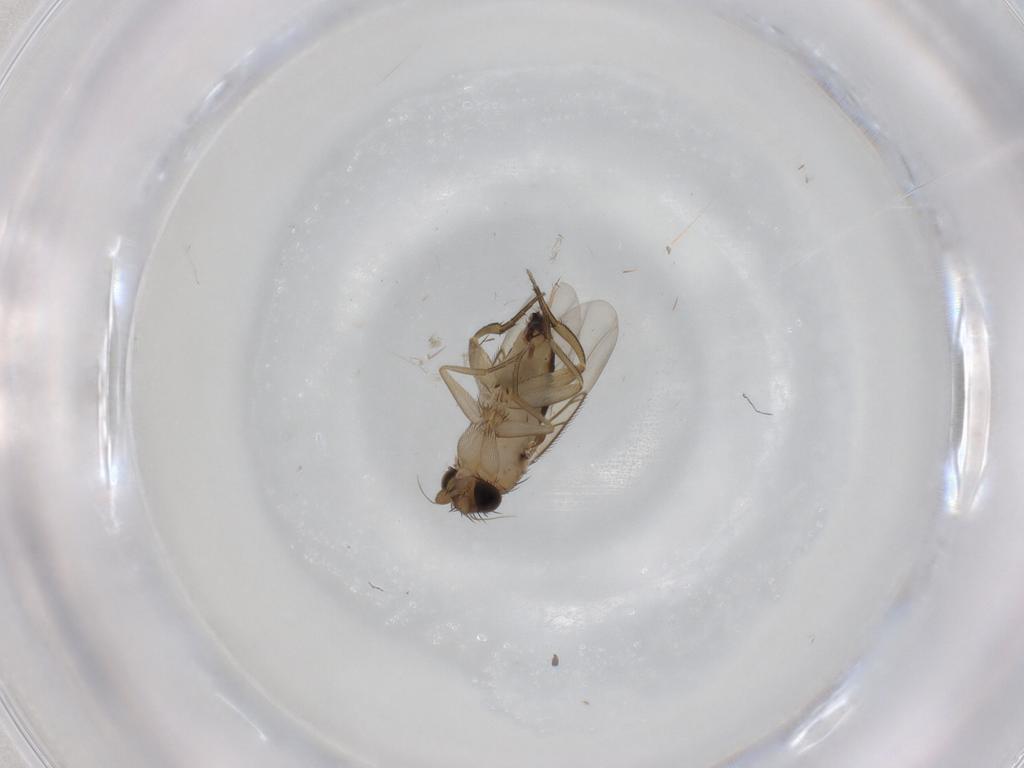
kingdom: Animalia
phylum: Arthropoda
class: Insecta
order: Diptera
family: Phoridae
